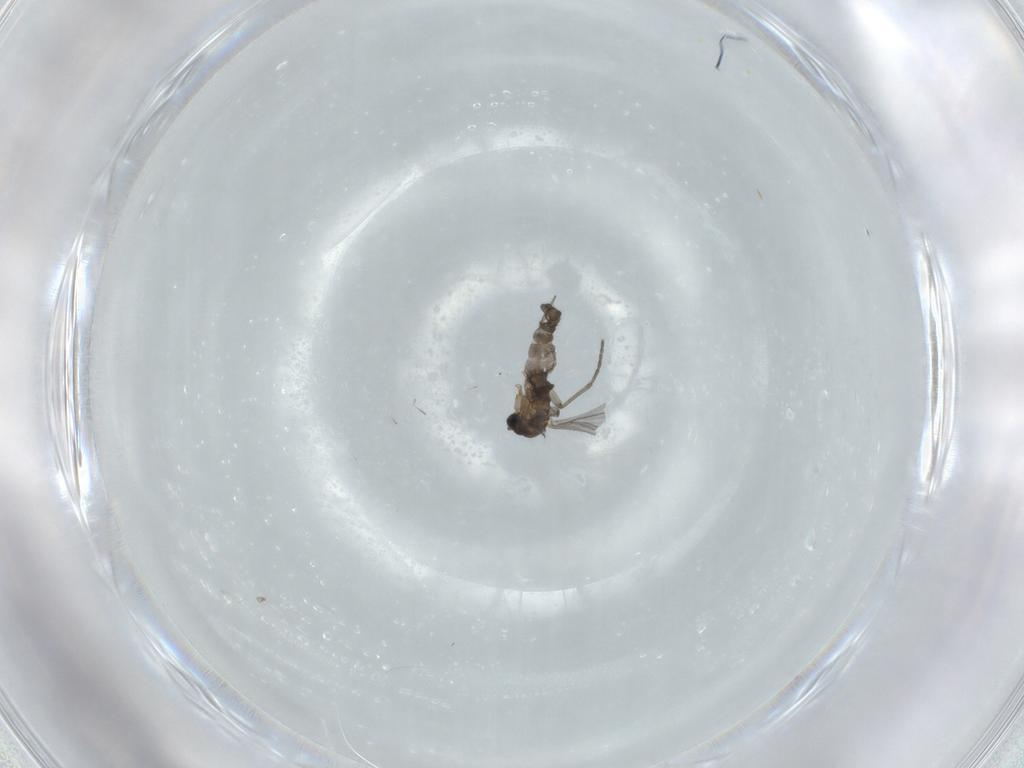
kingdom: Animalia
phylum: Arthropoda
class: Insecta
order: Diptera
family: Sciaridae
